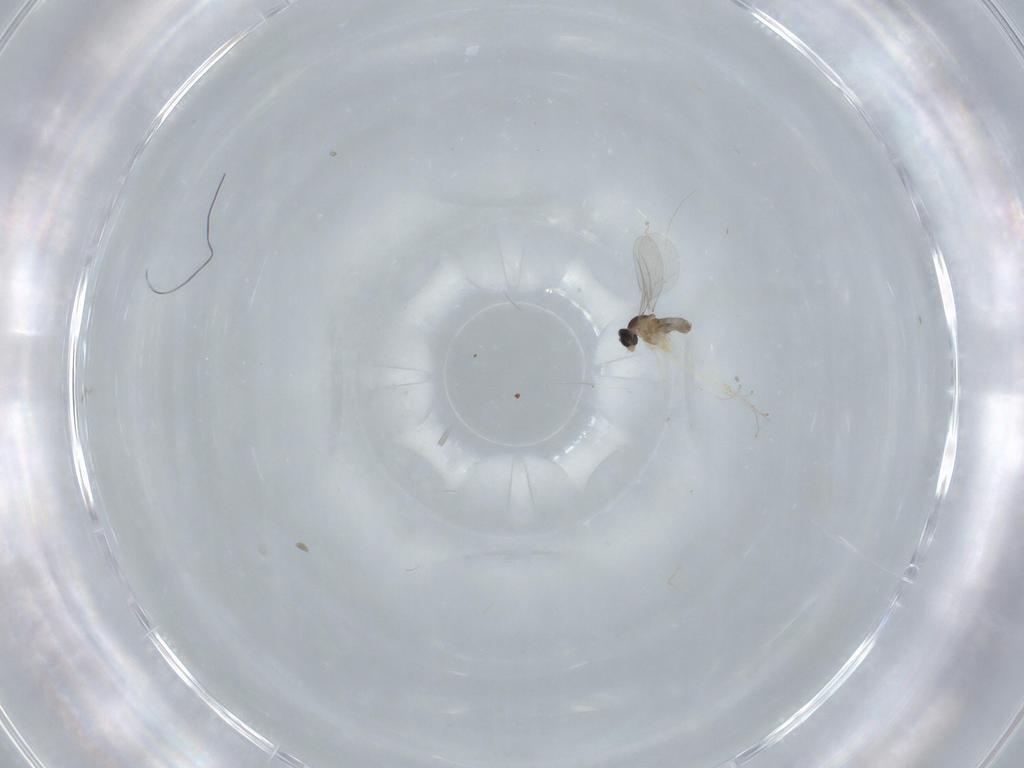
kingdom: Animalia
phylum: Arthropoda
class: Insecta
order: Diptera
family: Cecidomyiidae
